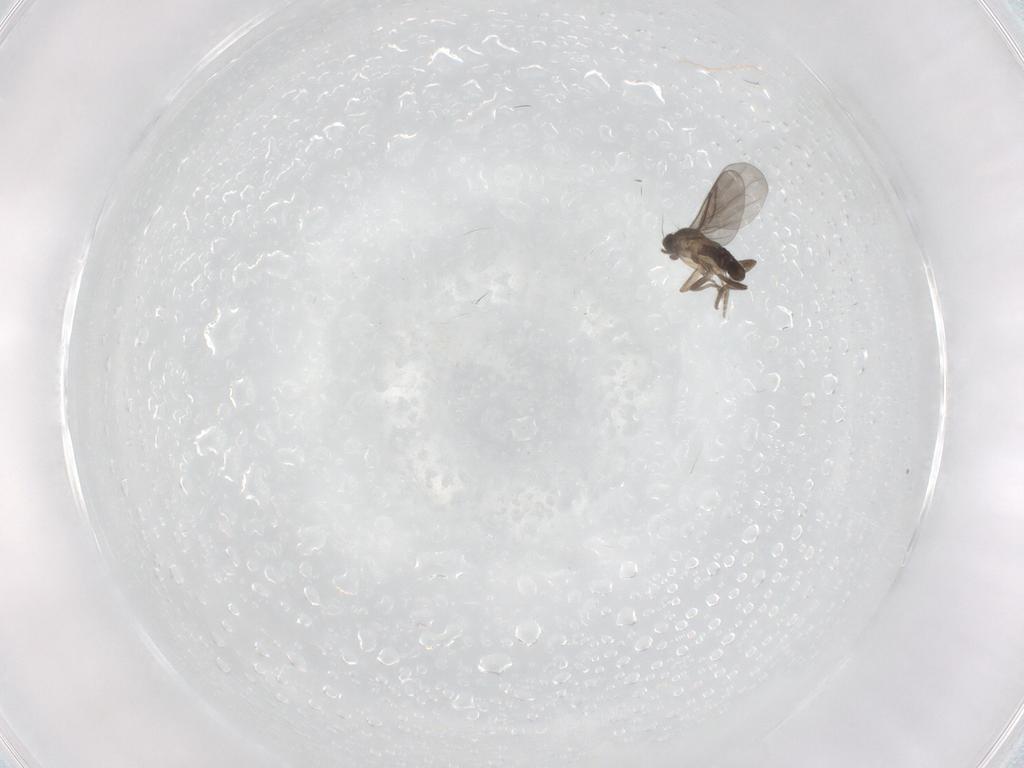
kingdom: Animalia
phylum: Arthropoda
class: Insecta
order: Diptera
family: Chironomidae
